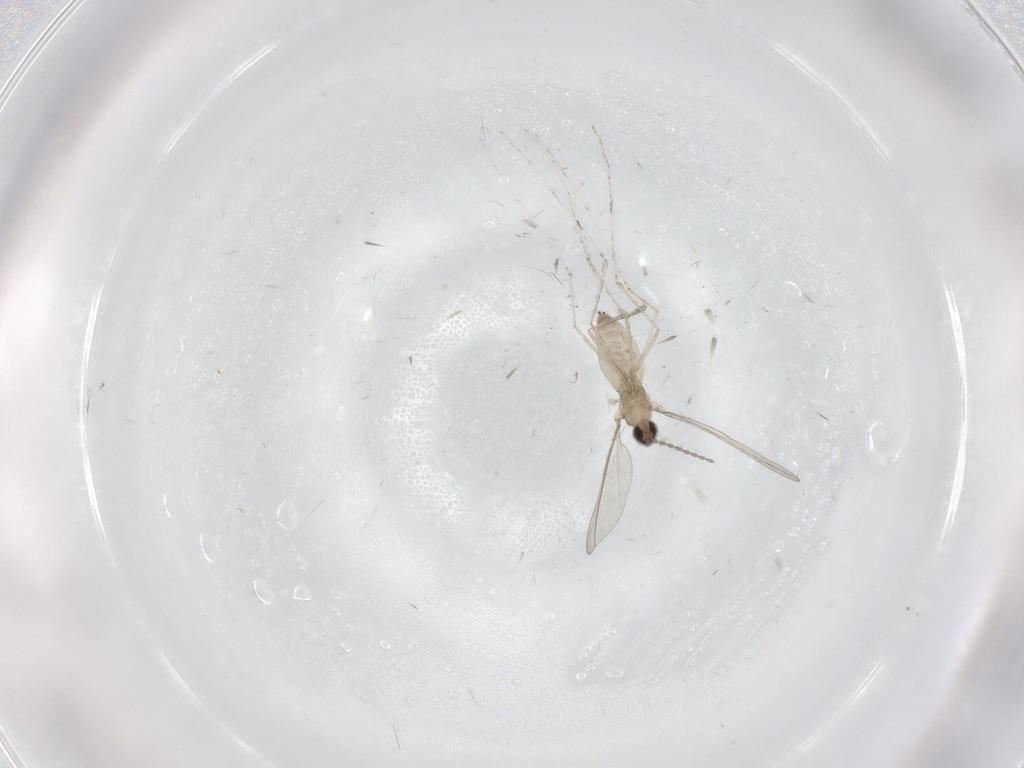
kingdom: Animalia
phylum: Arthropoda
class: Insecta
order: Diptera
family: Cecidomyiidae
